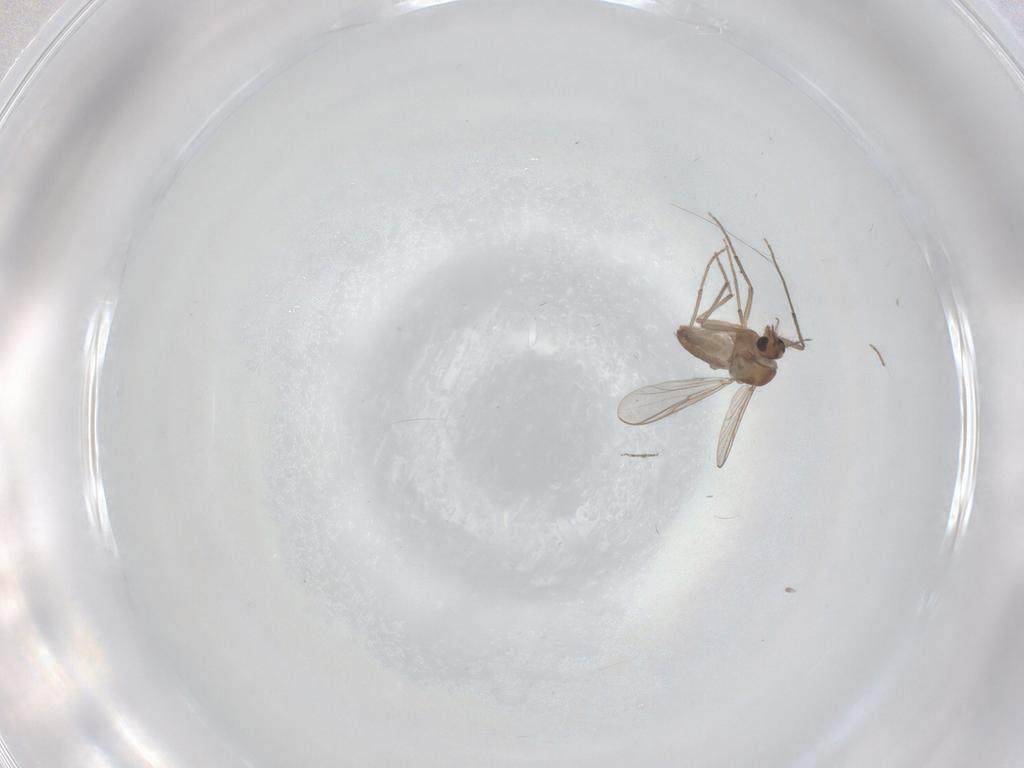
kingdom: Animalia
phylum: Arthropoda
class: Insecta
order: Diptera
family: Chironomidae
